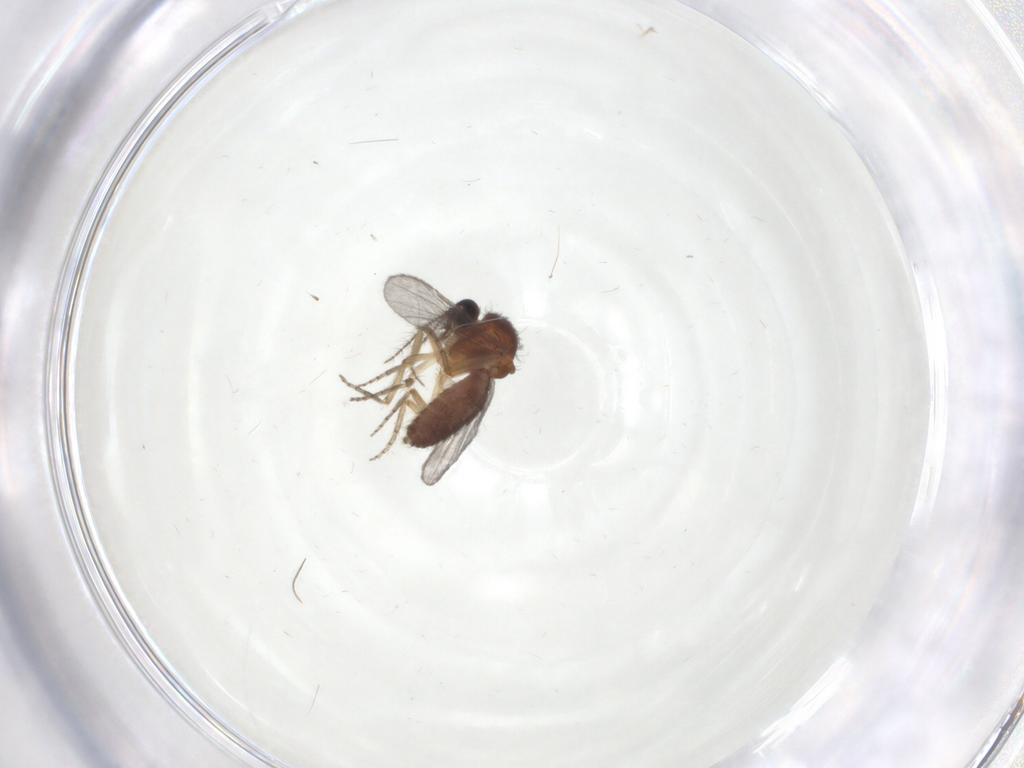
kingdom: Animalia
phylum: Arthropoda
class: Insecta
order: Diptera
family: Ceratopogonidae
